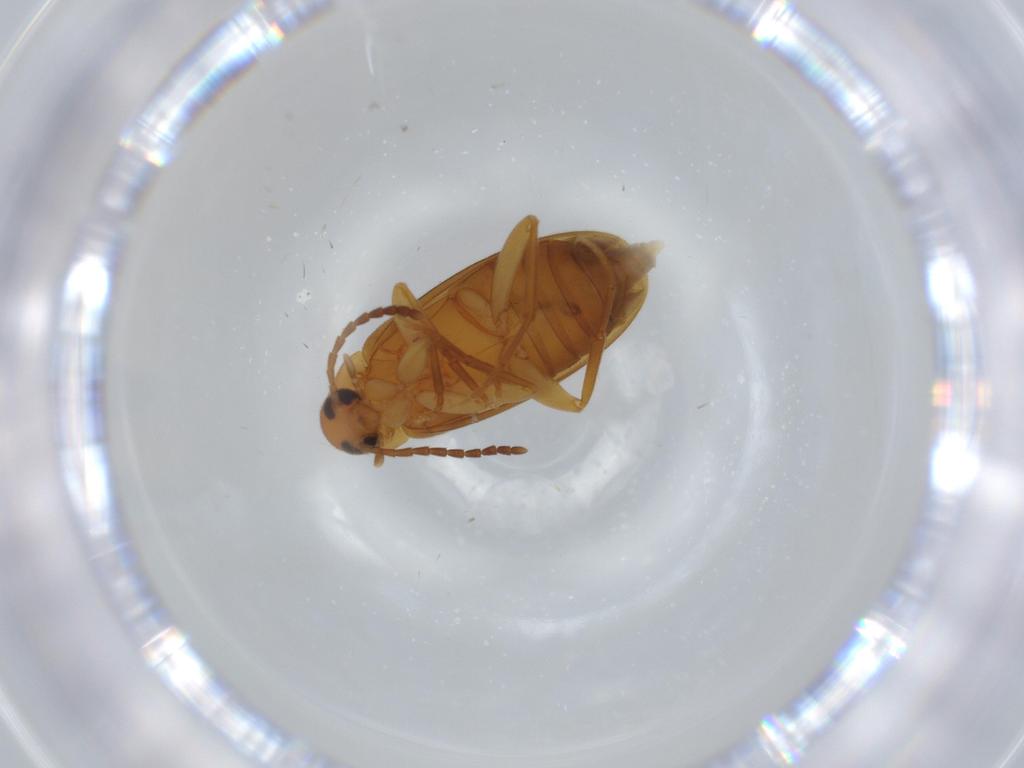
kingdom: Animalia
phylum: Arthropoda
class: Insecta
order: Coleoptera
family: Scraptiidae
